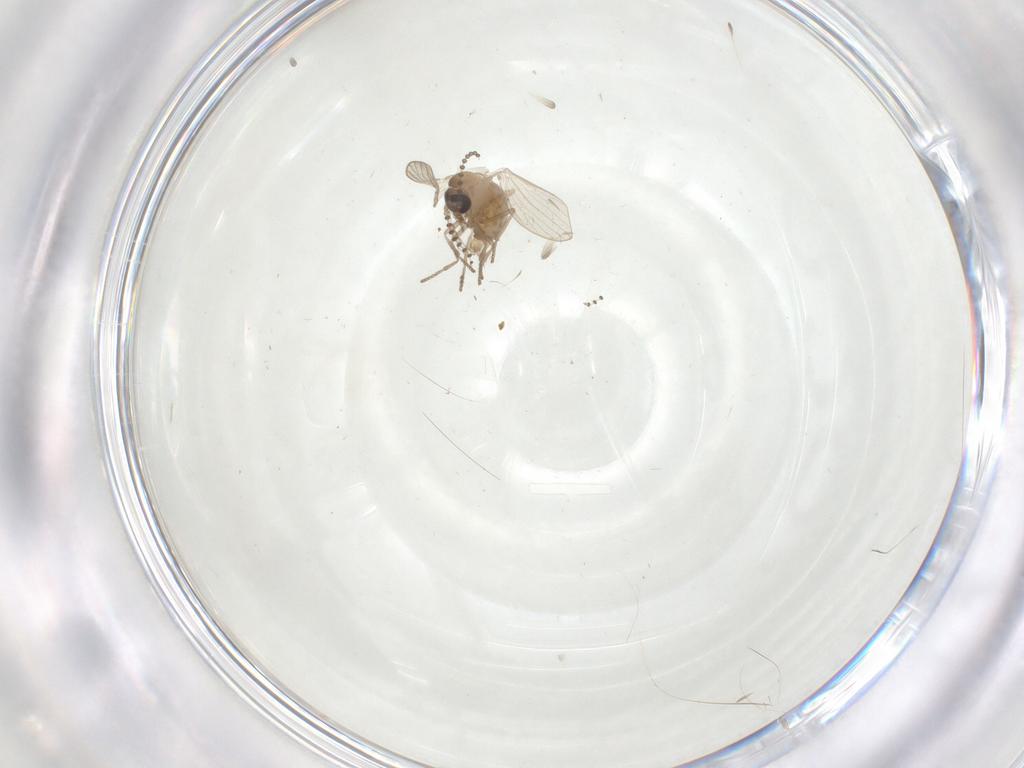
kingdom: Animalia
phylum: Arthropoda
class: Insecta
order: Diptera
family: Psychodidae
